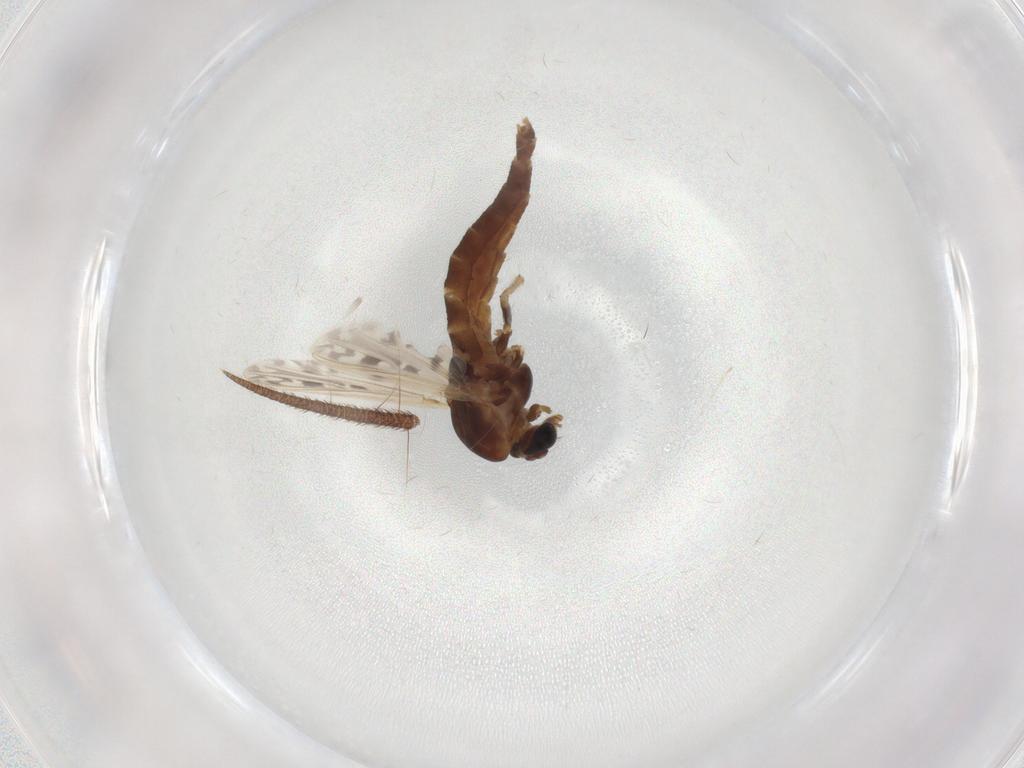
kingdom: Animalia
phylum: Arthropoda
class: Insecta
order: Diptera
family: Chironomidae
